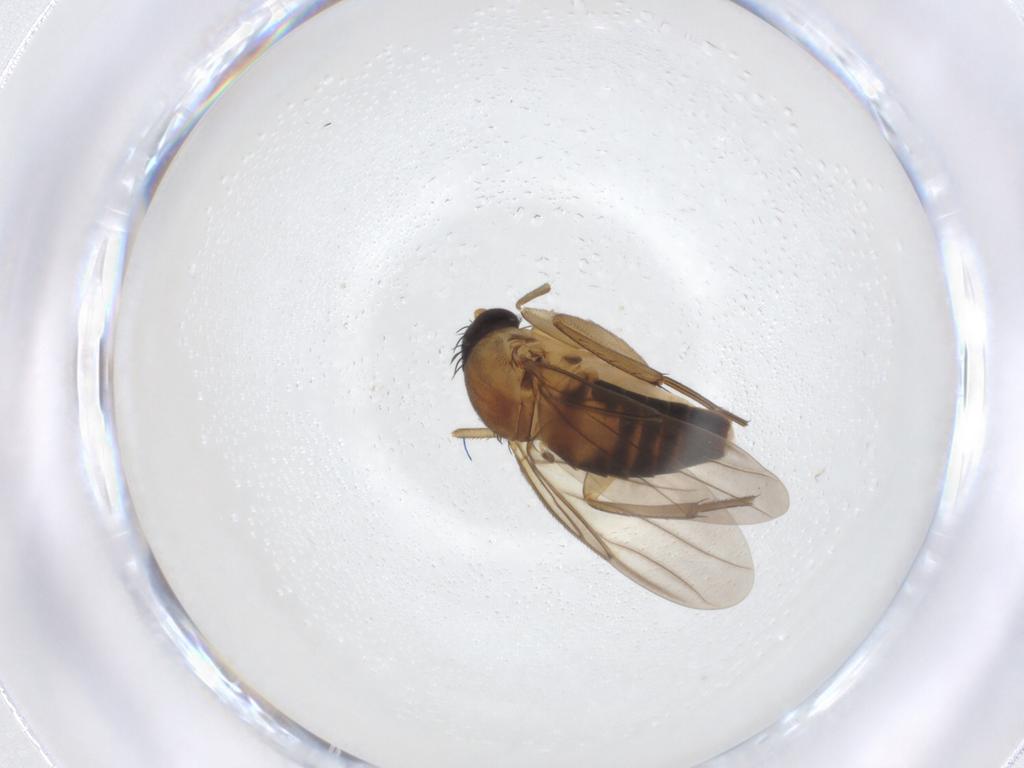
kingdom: Animalia
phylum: Arthropoda
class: Insecta
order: Diptera
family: Phoridae
